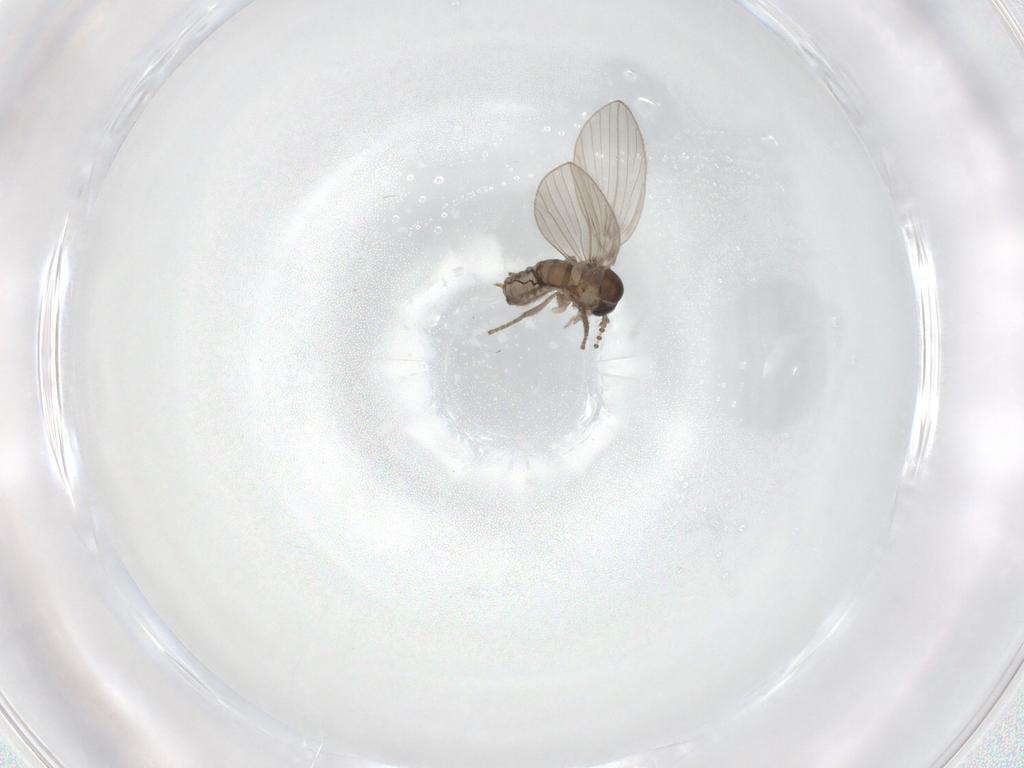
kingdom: Animalia
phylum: Arthropoda
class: Insecta
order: Diptera
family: Psychodidae
